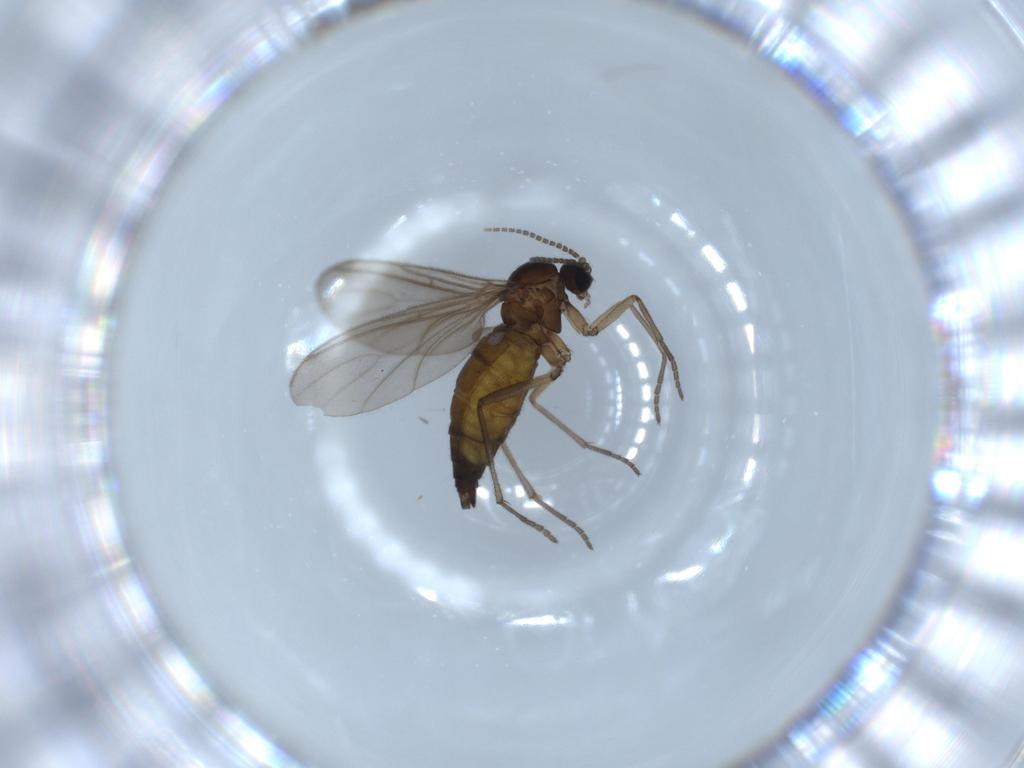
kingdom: Animalia
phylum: Arthropoda
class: Insecta
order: Diptera
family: Sciaridae
